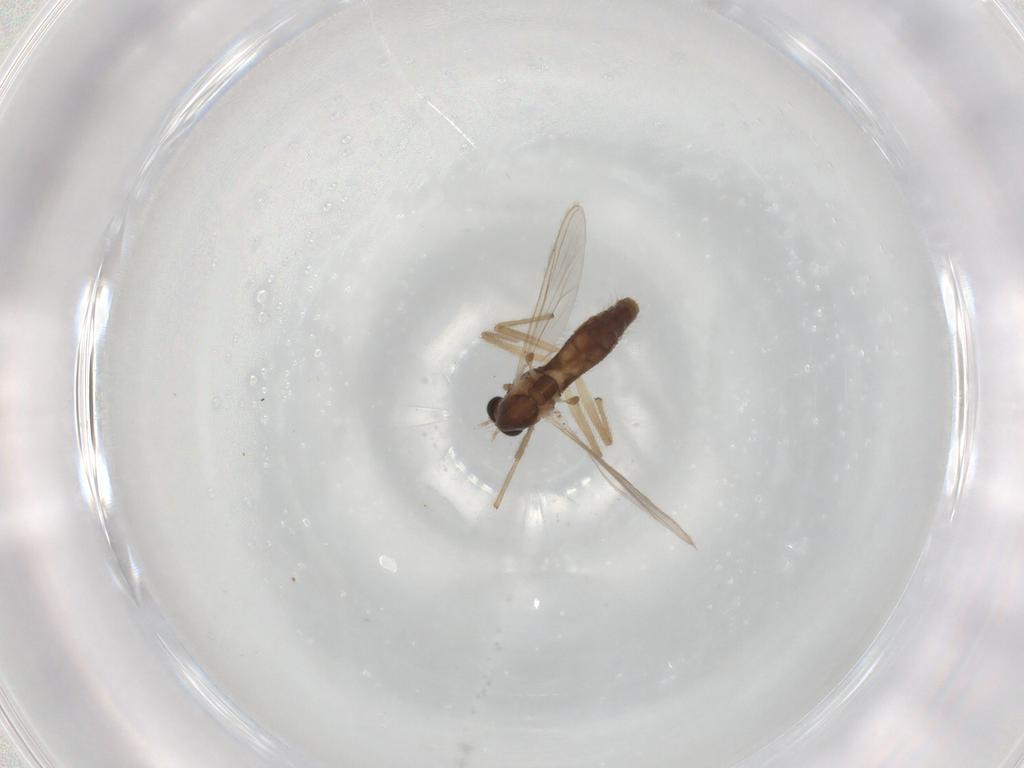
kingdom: Animalia
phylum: Arthropoda
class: Insecta
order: Diptera
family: Chironomidae
